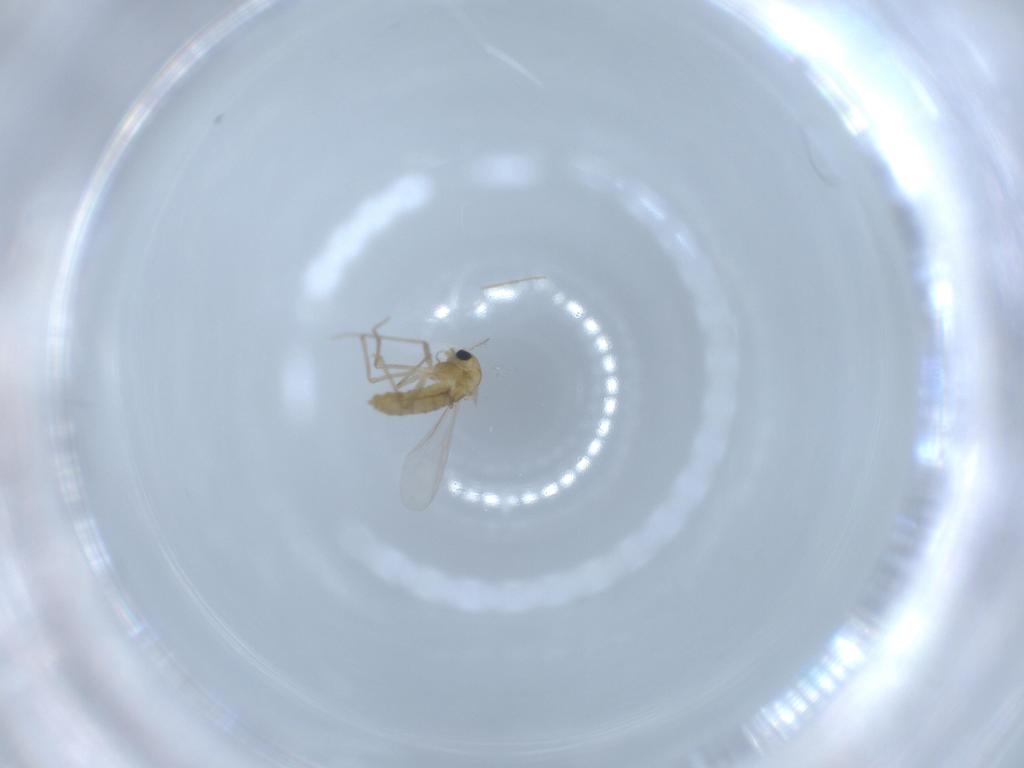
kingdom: Animalia
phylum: Arthropoda
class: Insecta
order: Diptera
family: Chironomidae
